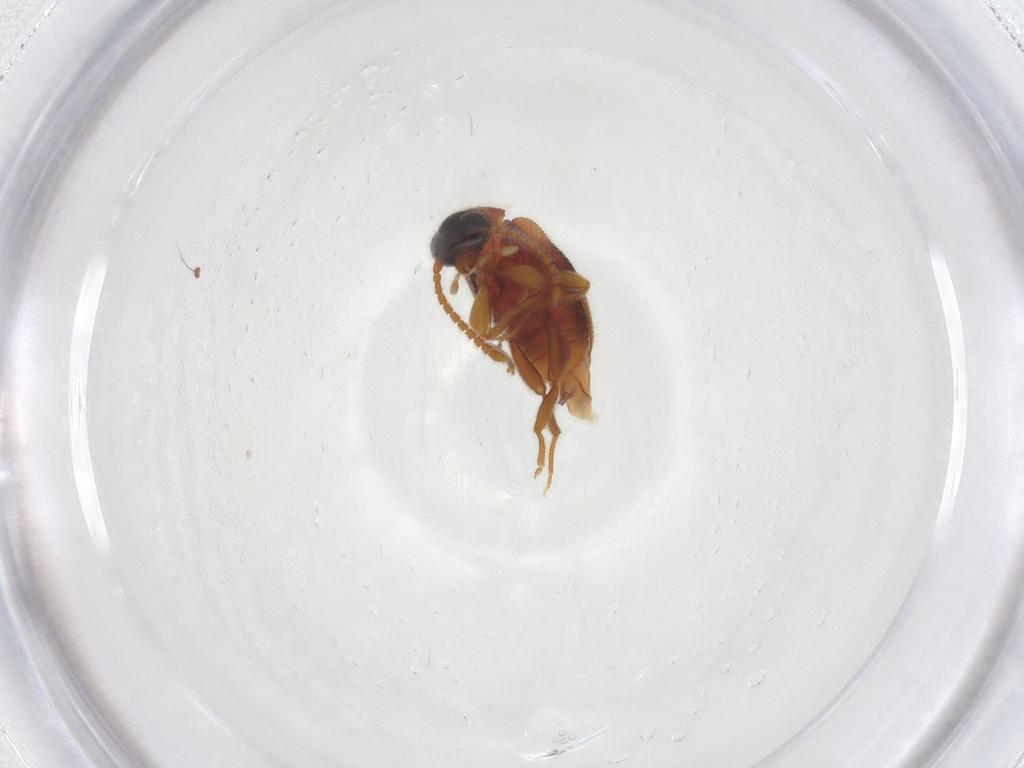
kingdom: Animalia
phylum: Arthropoda
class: Insecta
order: Coleoptera
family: Aderidae
